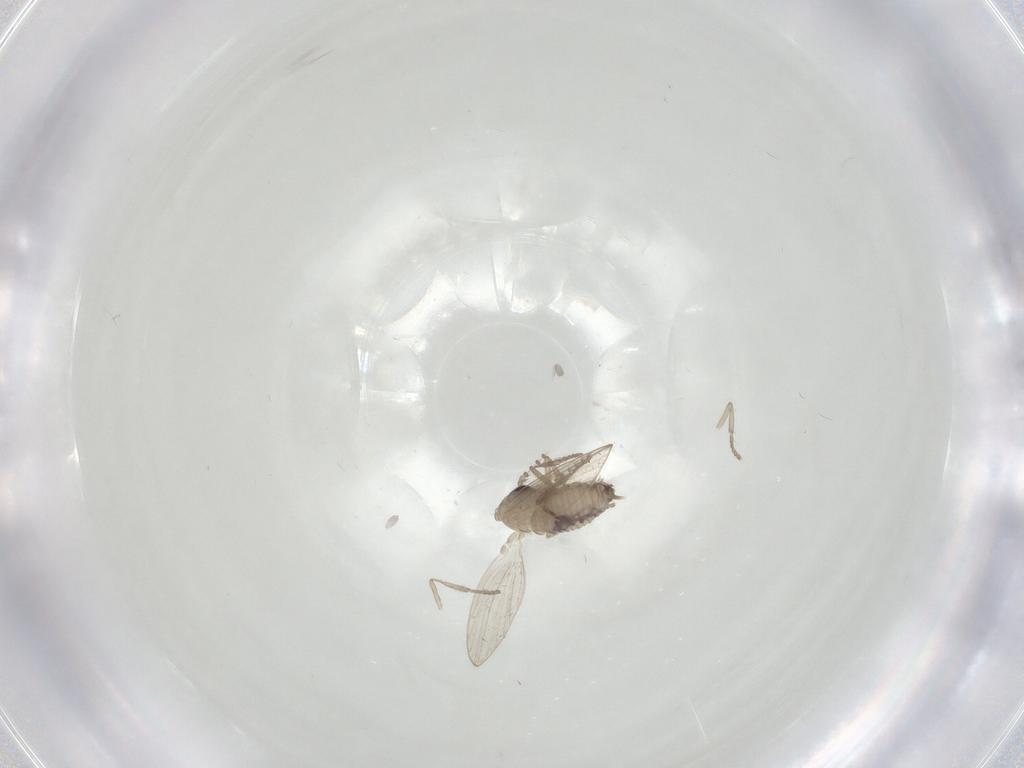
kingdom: Animalia
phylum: Arthropoda
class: Insecta
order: Diptera
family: Psychodidae
